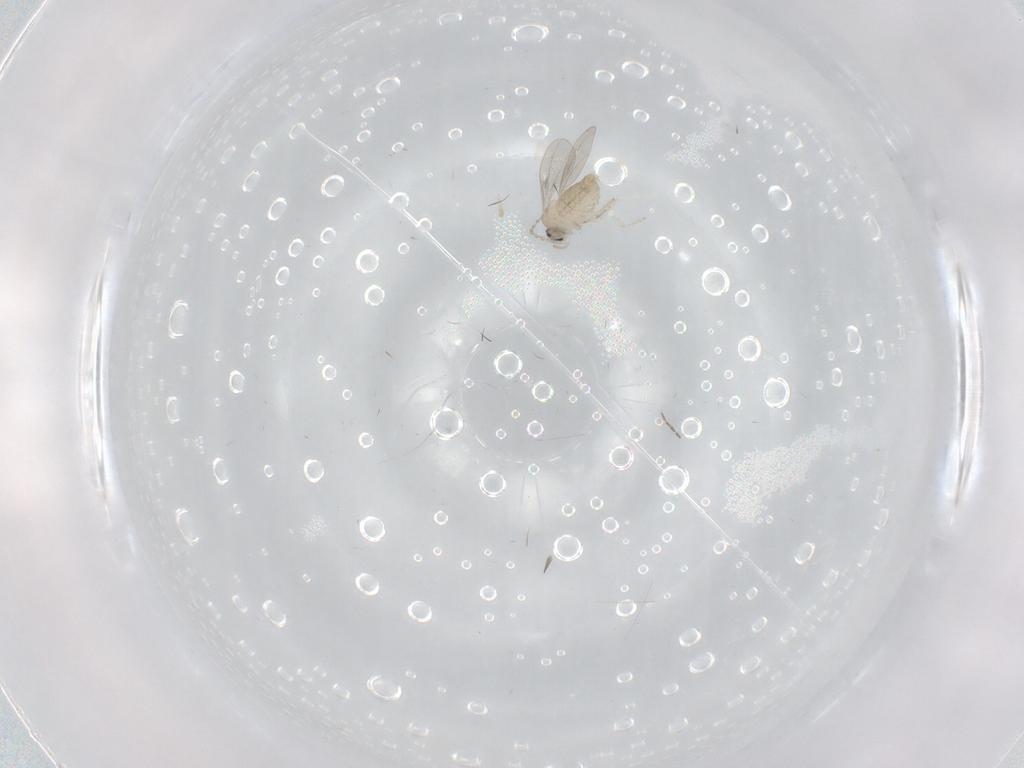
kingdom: Animalia
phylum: Arthropoda
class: Insecta
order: Diptera
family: Cecidomyiidae
